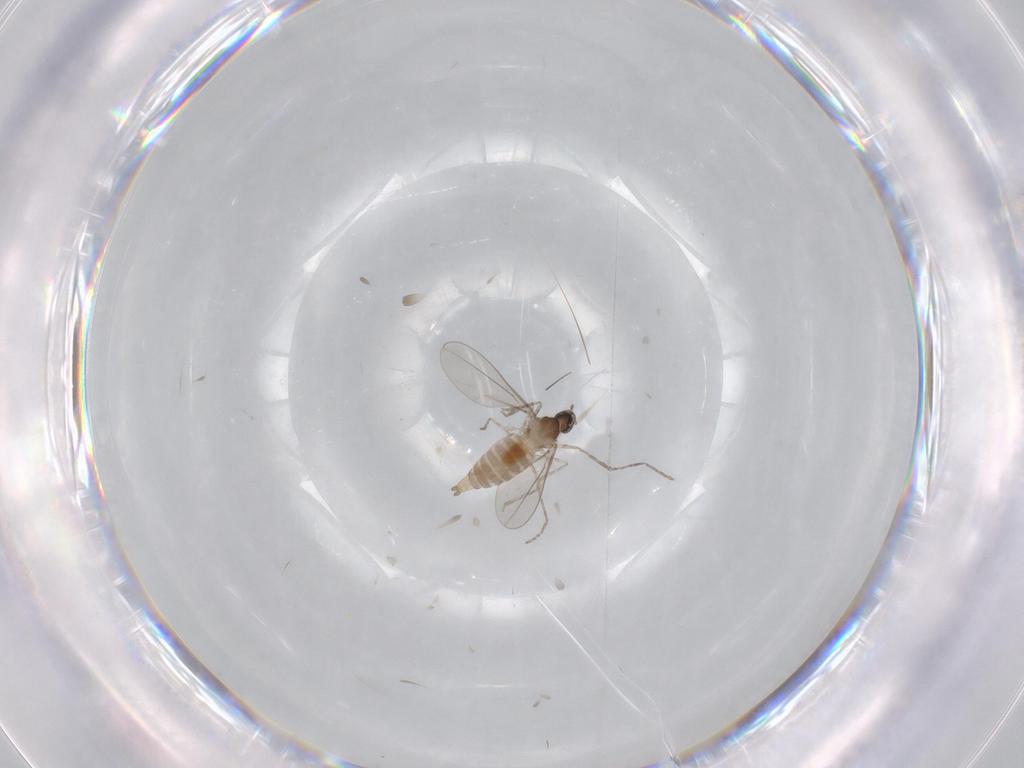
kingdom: Animalia
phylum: Arthropoda
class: Insecta
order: Diptera
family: Cecidomyiidae
